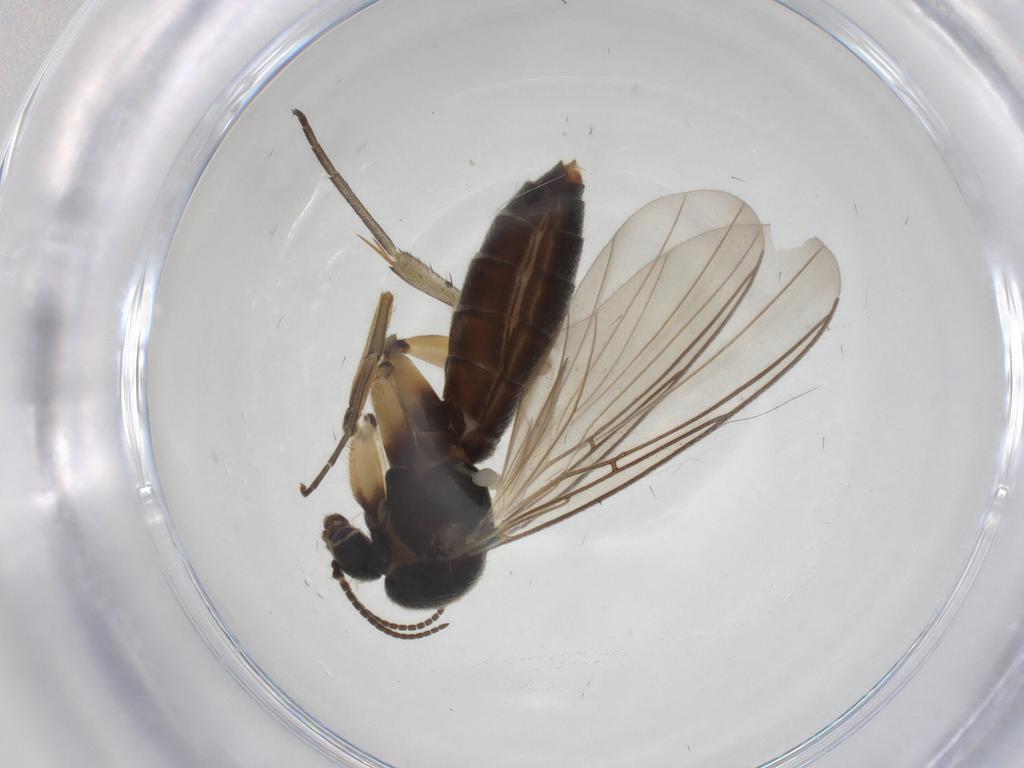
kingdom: Animalia
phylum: Arthropoda
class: Insecta
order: Diptera
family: Mycetophilidae
